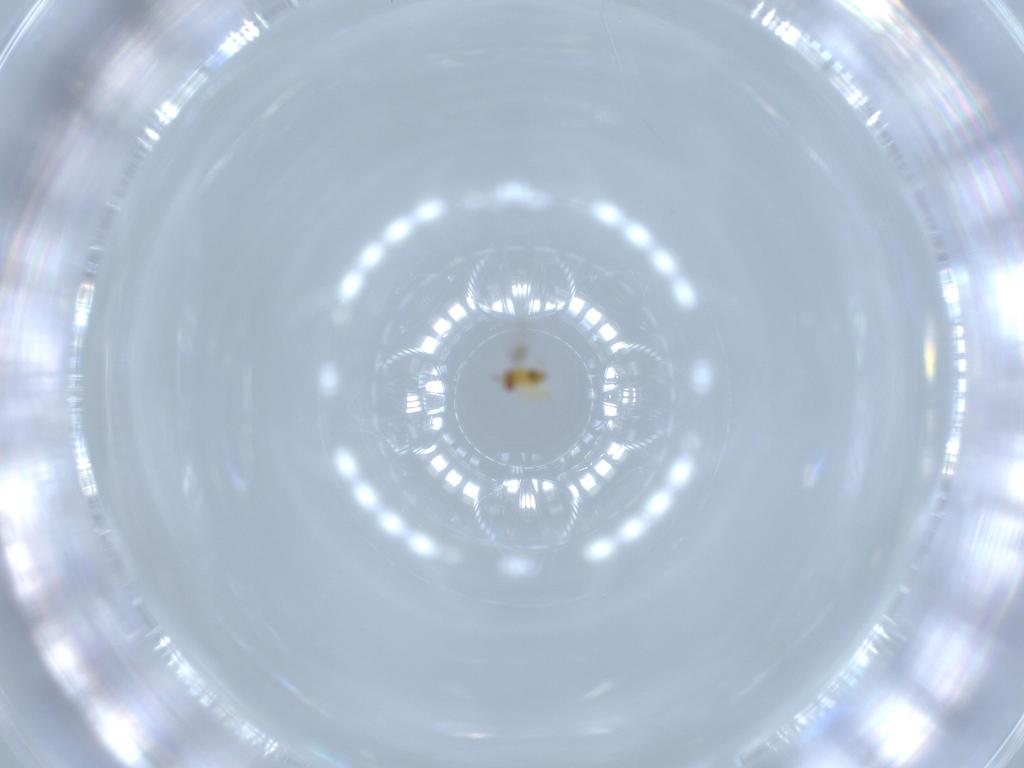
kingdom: Animalia
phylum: Arthropoda
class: Insecta
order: Hymenoptera
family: Trichogrammatidae
